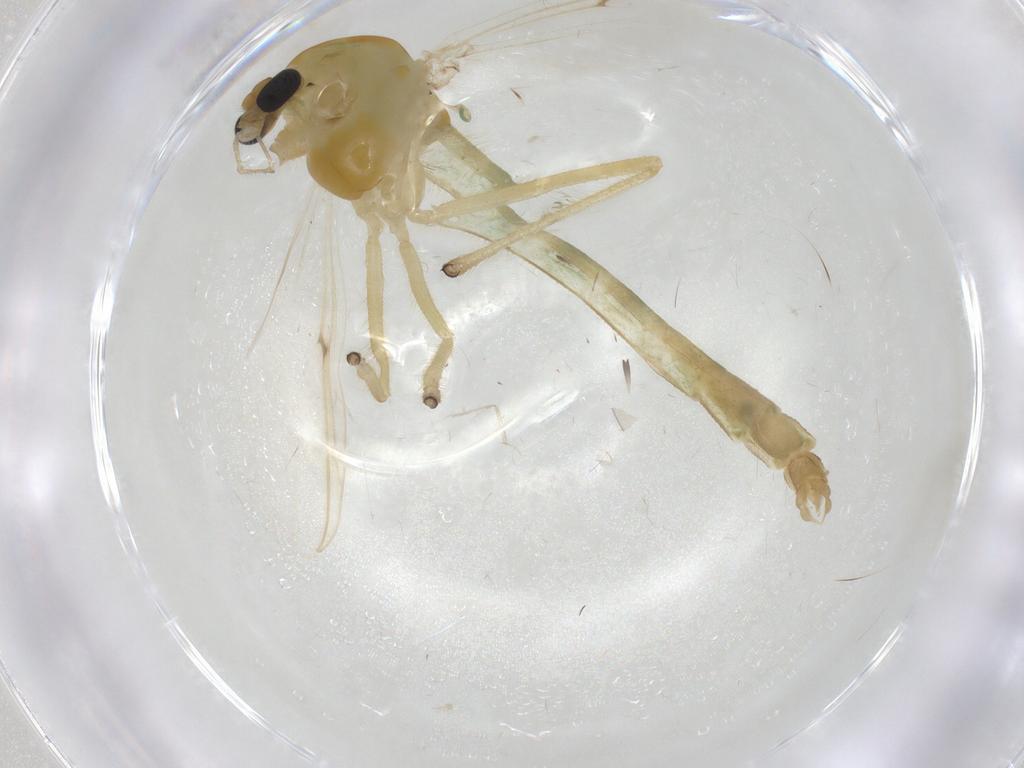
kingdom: Animalia
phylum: Arthropoda
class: Insecta
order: Diptera
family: Chironomidae
